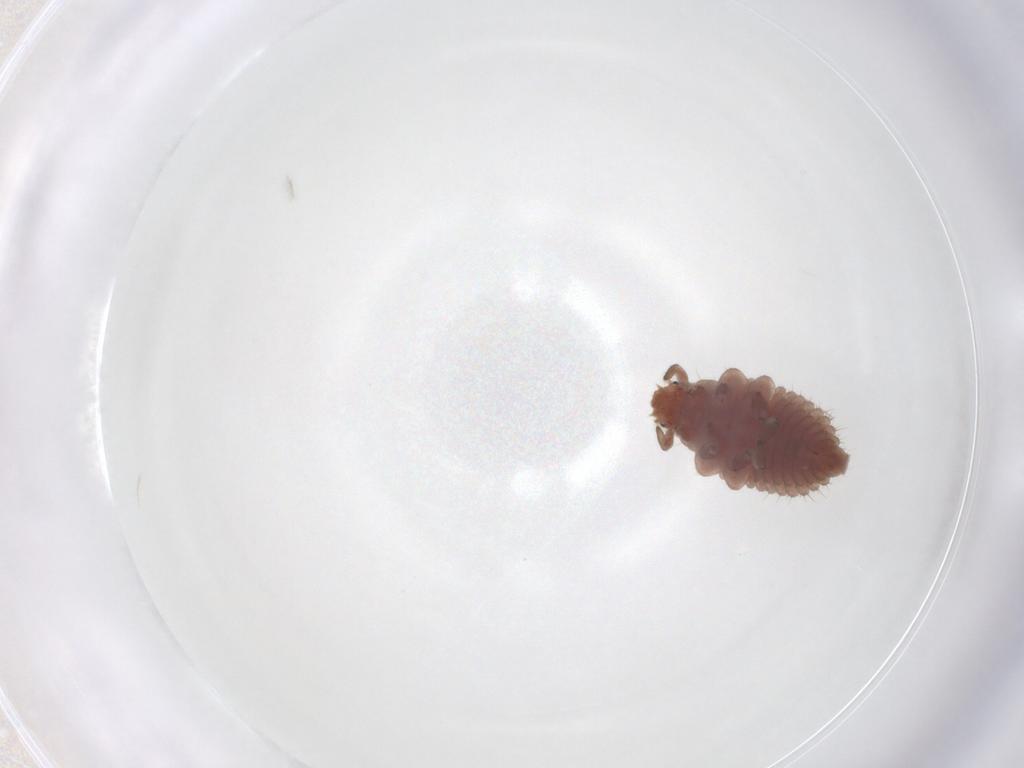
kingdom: Animalia
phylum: Arthropoda
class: Insecta
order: Coleoptera
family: Coccinellidae
